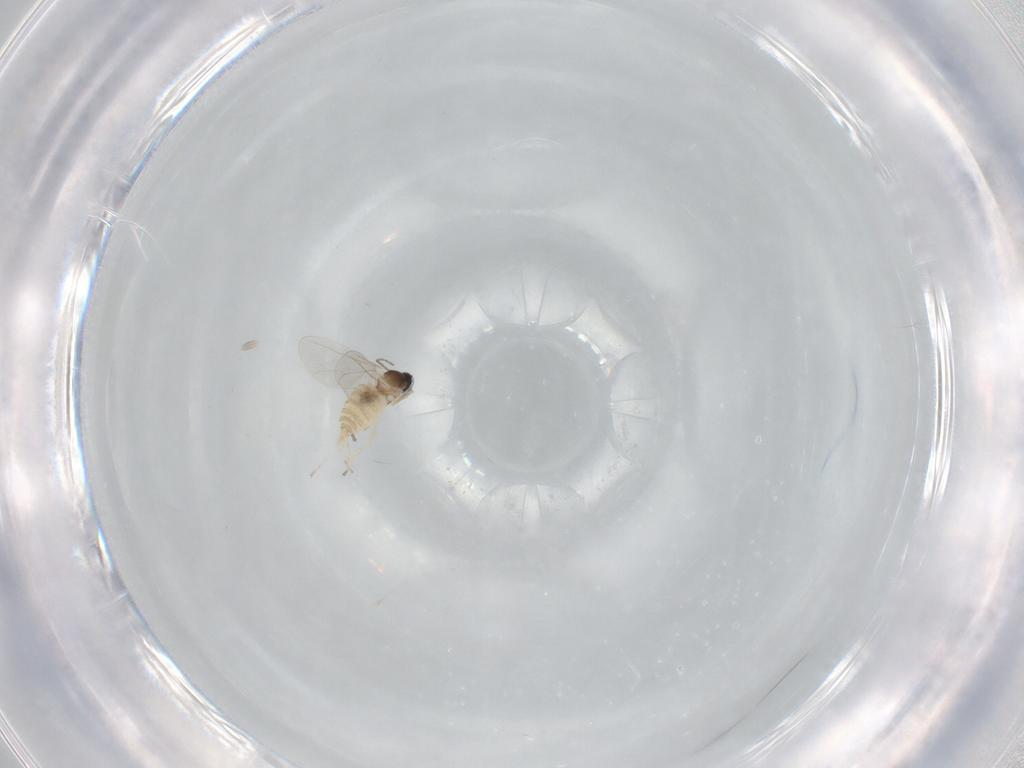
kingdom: Animalia
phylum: Arthropoda
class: Insecta
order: Diptera
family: Cecidomyiidae
